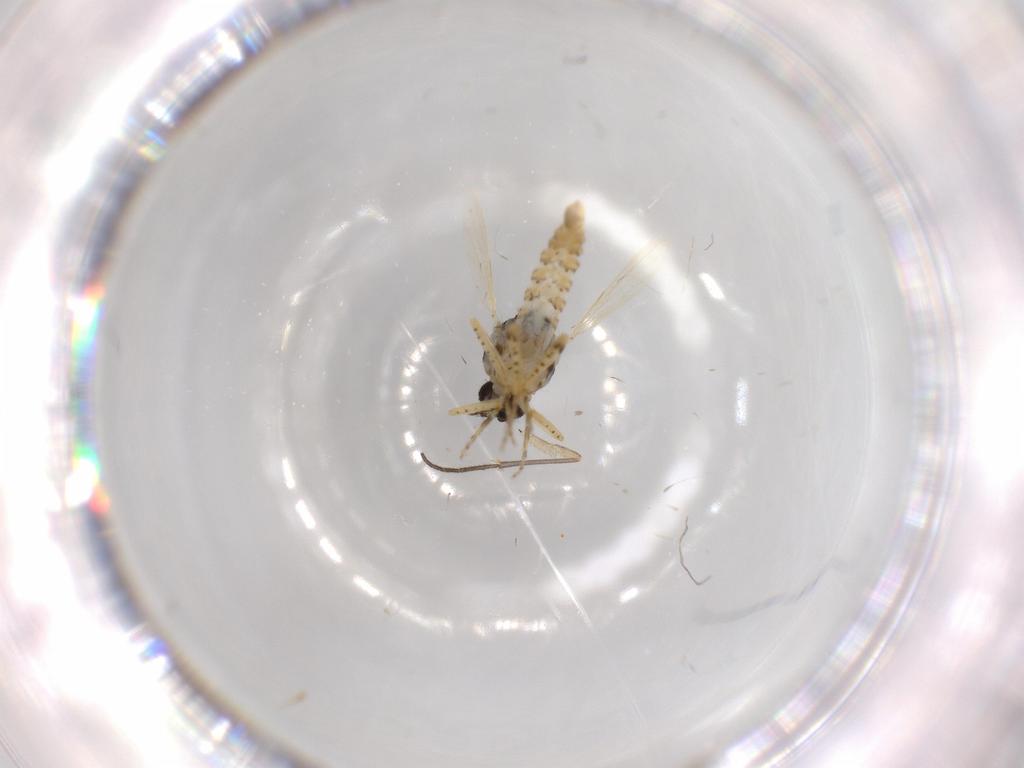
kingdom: Animalia
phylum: Arthropoda
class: Insecta
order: Diptera
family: Ceratopogonidae
